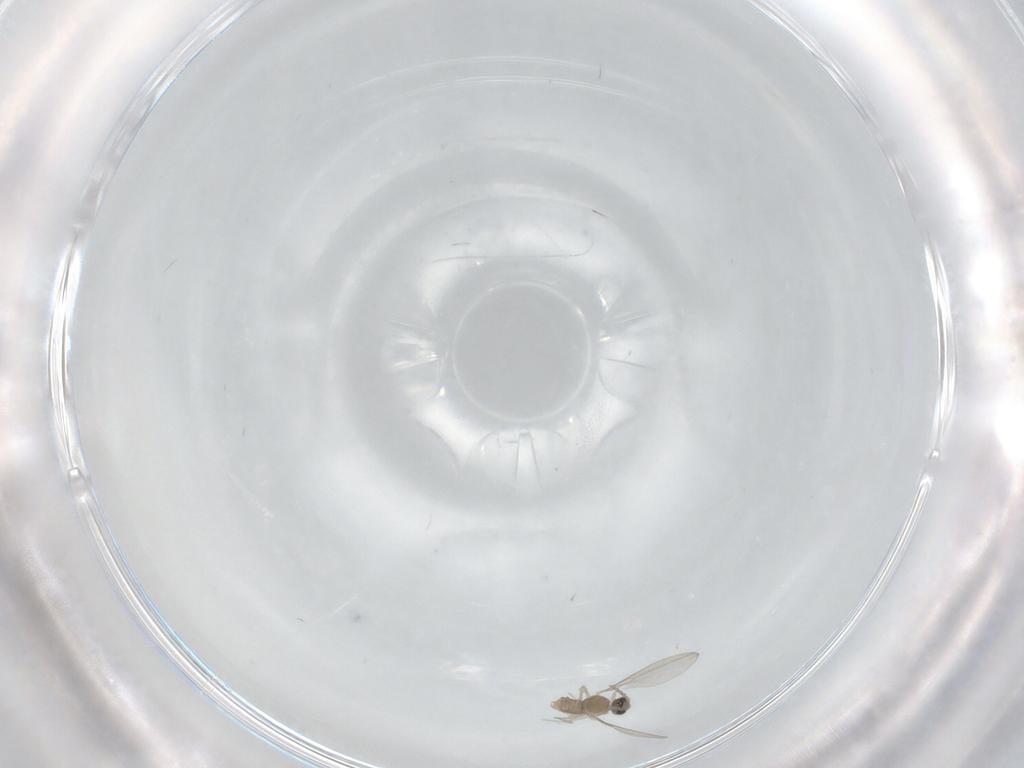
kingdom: Animalia
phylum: Arthropoda
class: Insecta
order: Diptera
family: Cecidomyiidae
